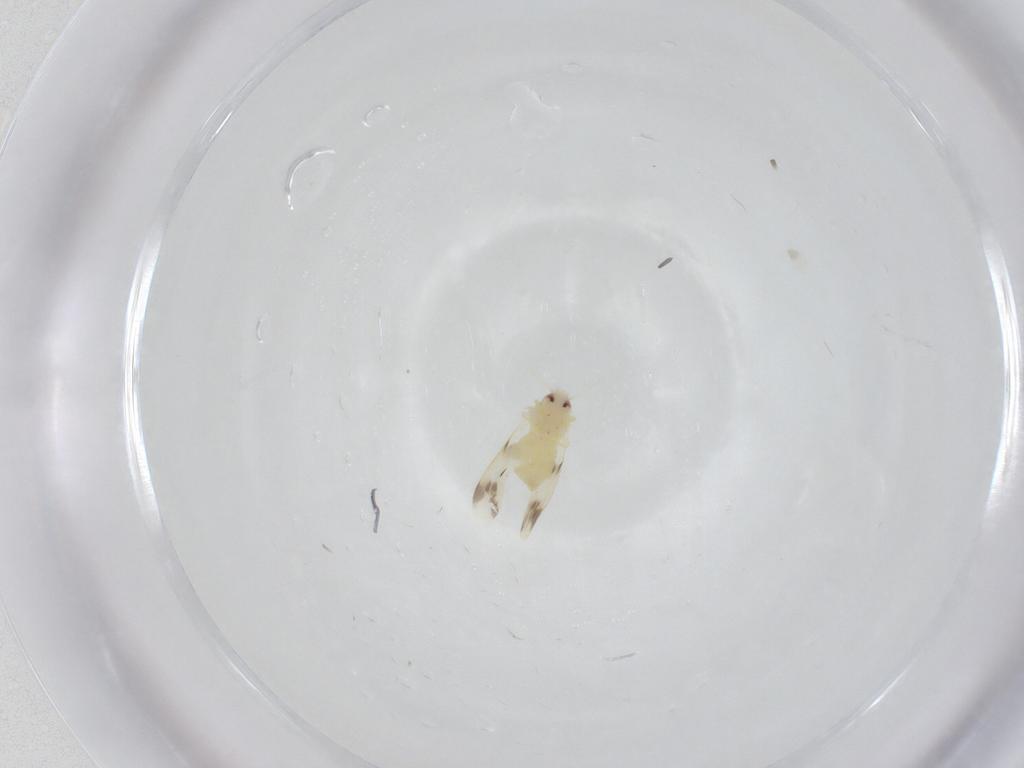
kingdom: Animalia
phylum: Arthropoda
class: Insecta
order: Hemiptera
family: Aleyrodidae
